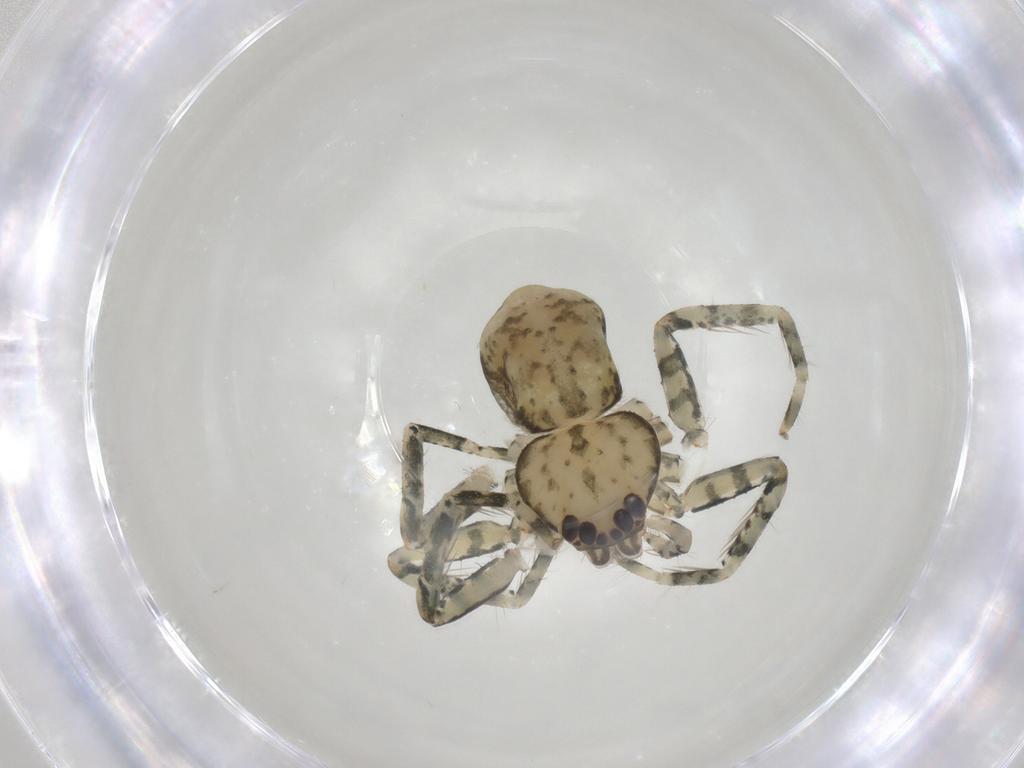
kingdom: Animalia
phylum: Arthropoda
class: Arachnida
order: Araneae
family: Selenopidae
